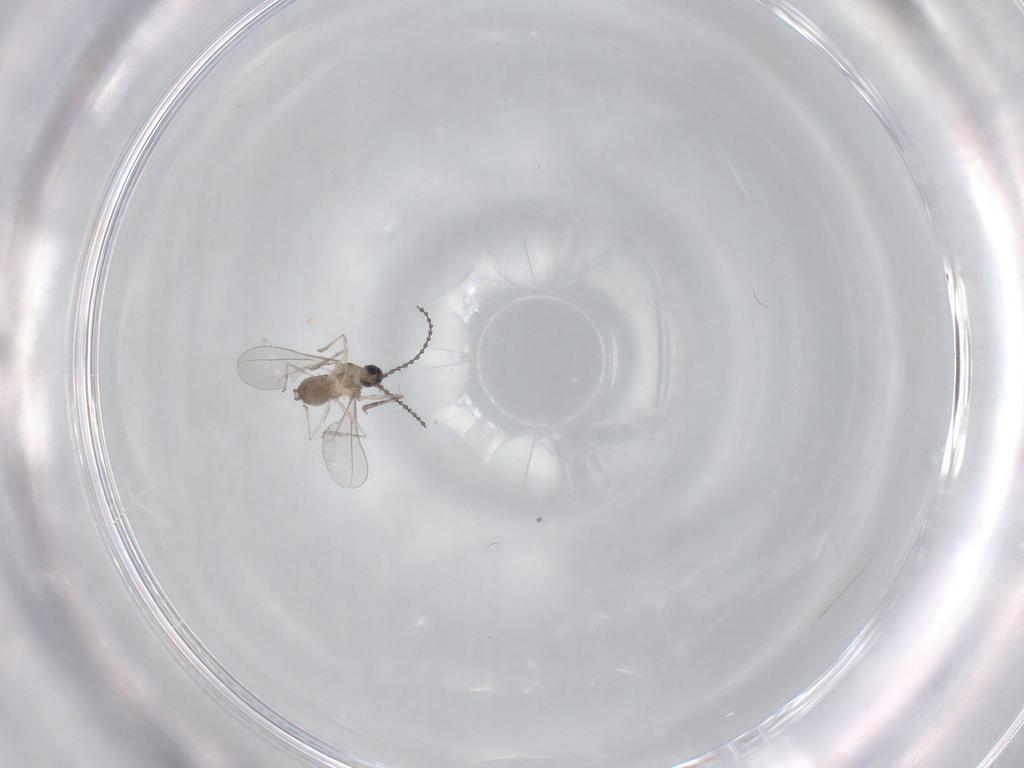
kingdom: Animalia
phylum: Arthropoda
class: Insecta
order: Diptera
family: Cecidomyiidae
